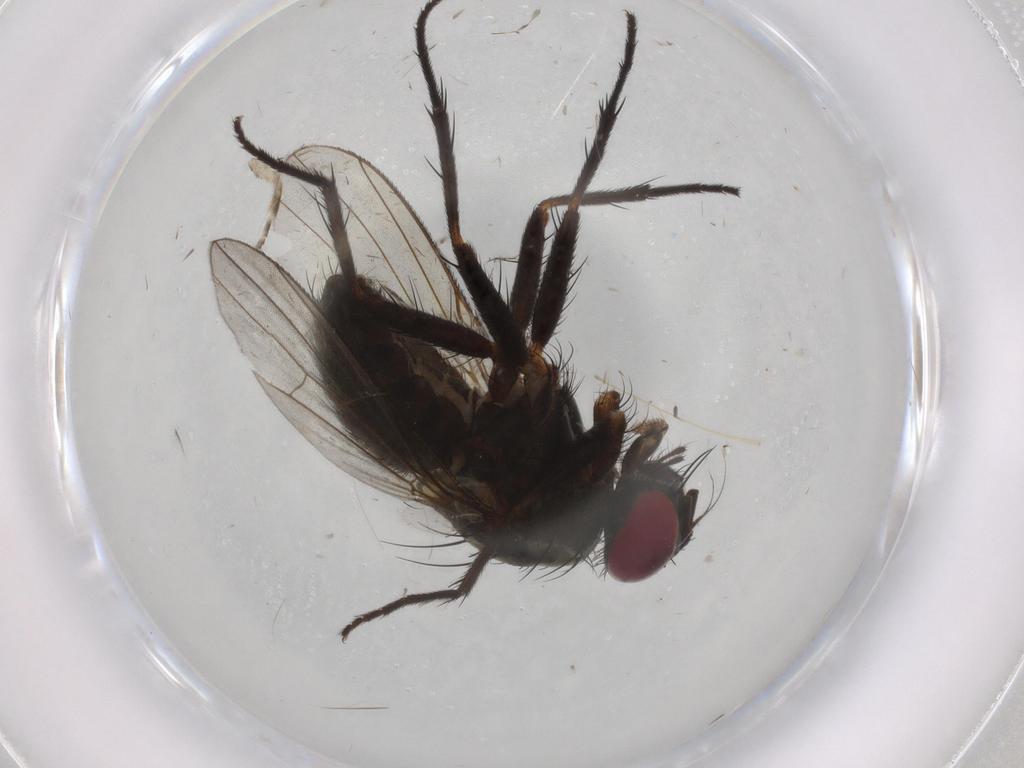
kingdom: Animalia
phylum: Arthropoda
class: Insecta
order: Diptera
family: Muscidae
